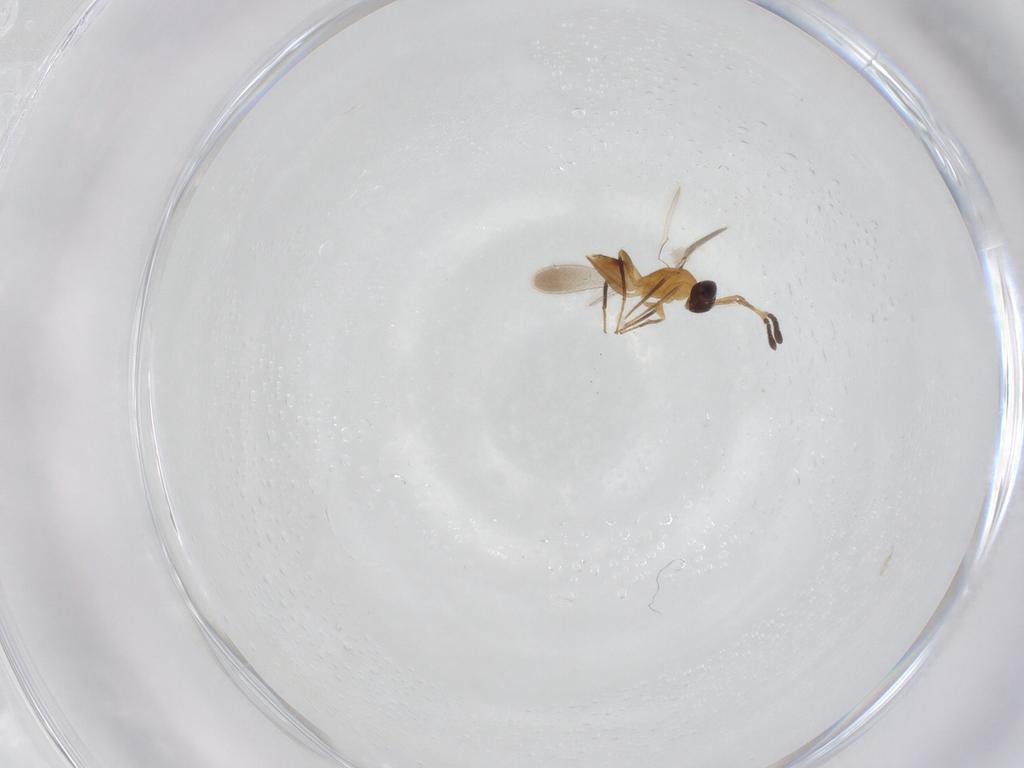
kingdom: Animalia
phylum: Arthropoda
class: Insecta
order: Hymenoptera
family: Mymaridae
